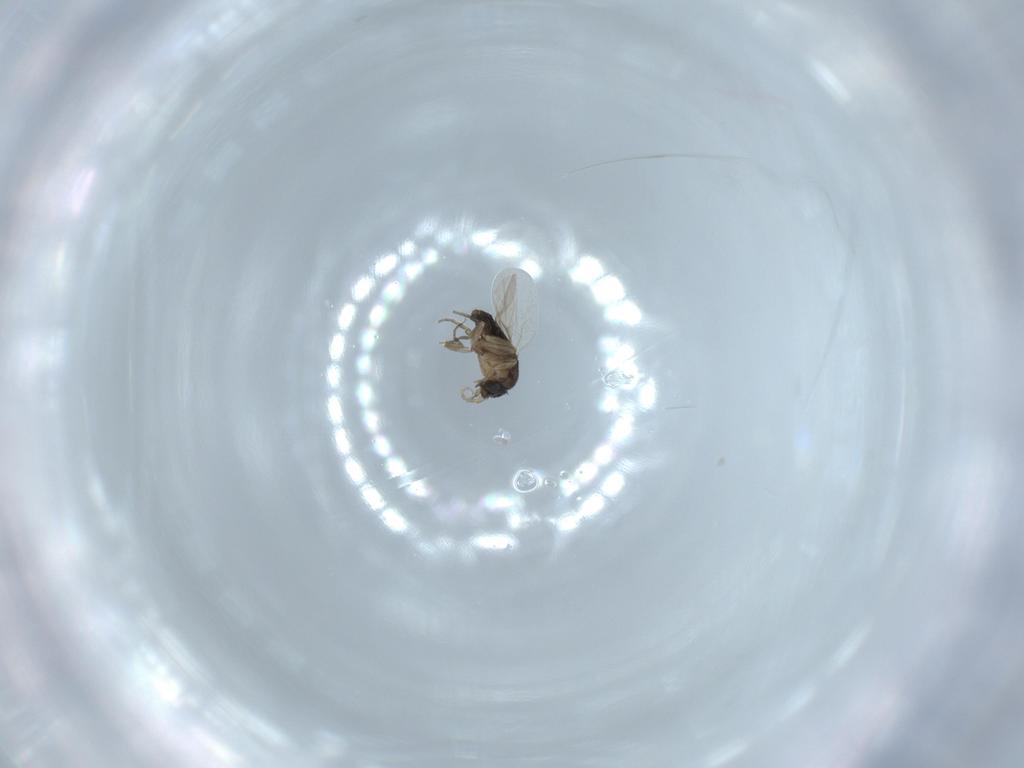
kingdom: Animalia
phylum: Arthropoda
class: Insecta
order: Diptera
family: Phoridae
